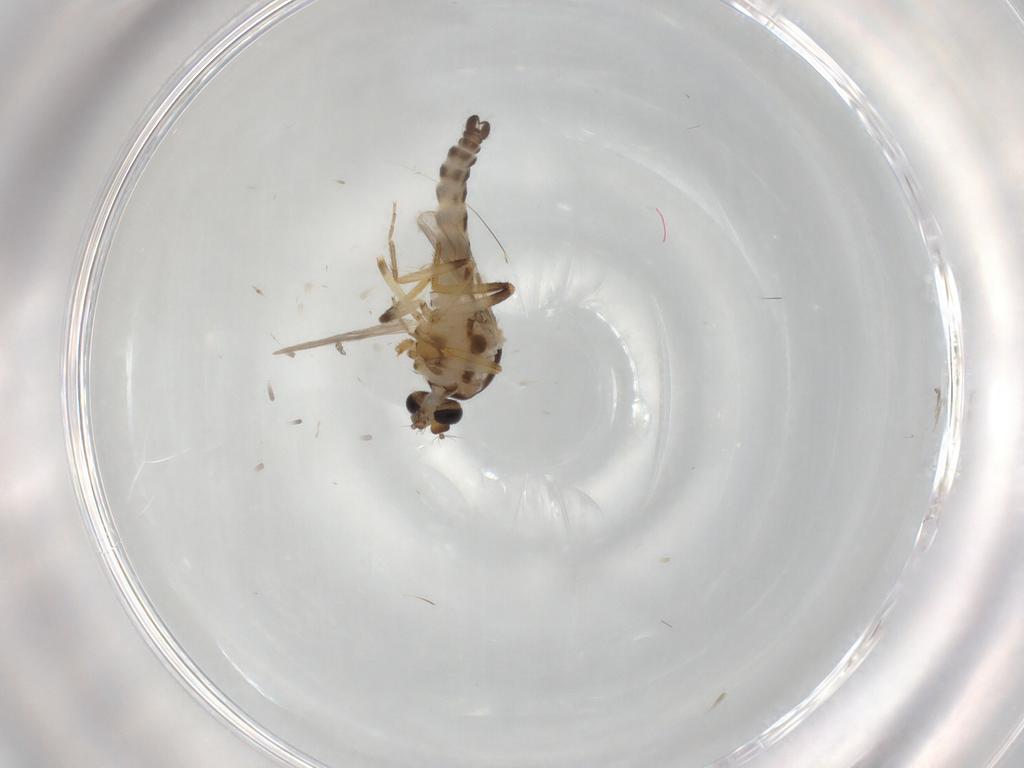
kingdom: Animalia
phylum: Arthropoda
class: Insecta
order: Diptera
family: Ceratopogonidae
